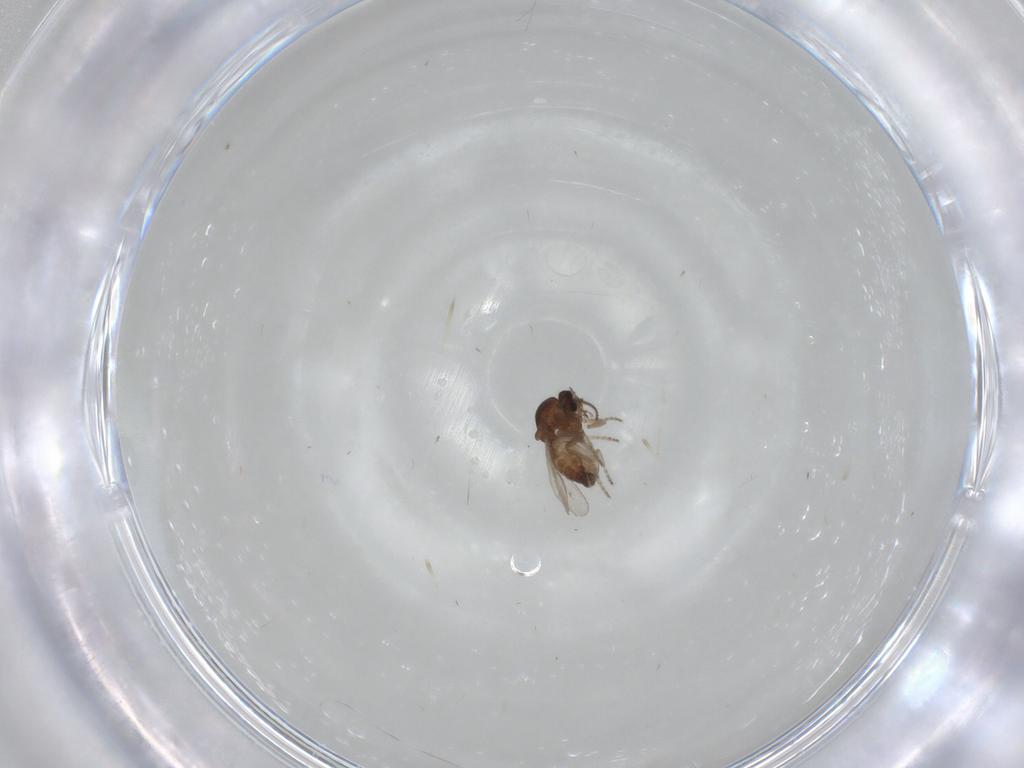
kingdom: Animalia
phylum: Arthropoda
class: Insecta
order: Diptera
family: Ceratopogonidae
